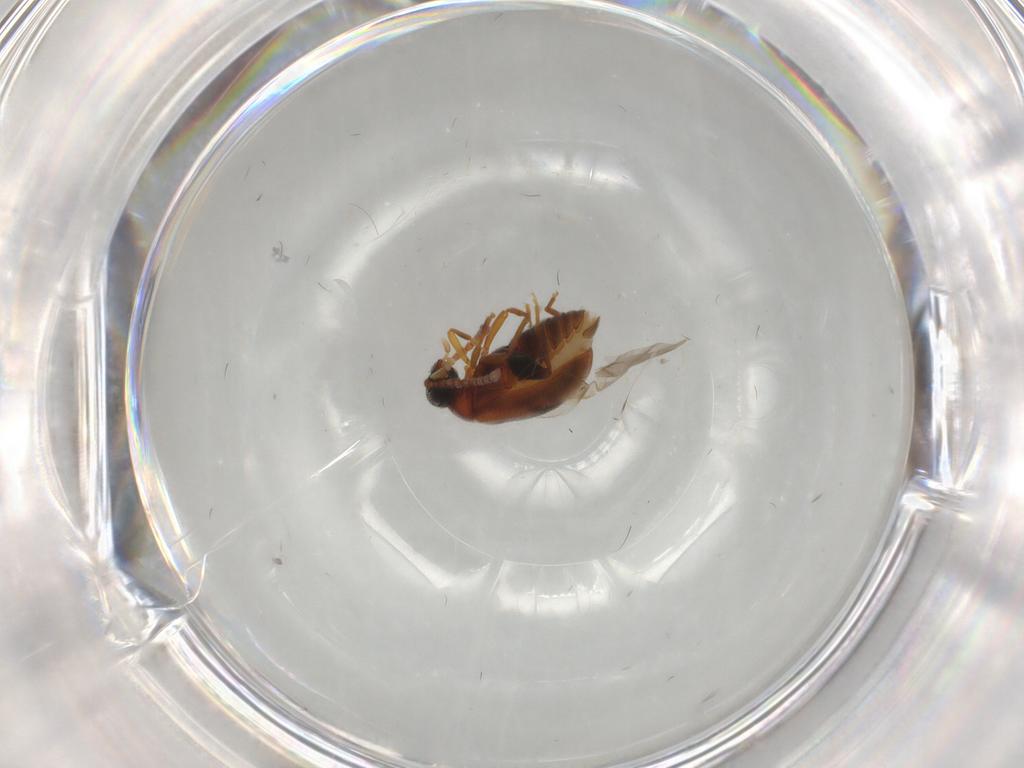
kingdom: Animalia
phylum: Arthropoda
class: Insecta
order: Coleoptera
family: Aderidae
